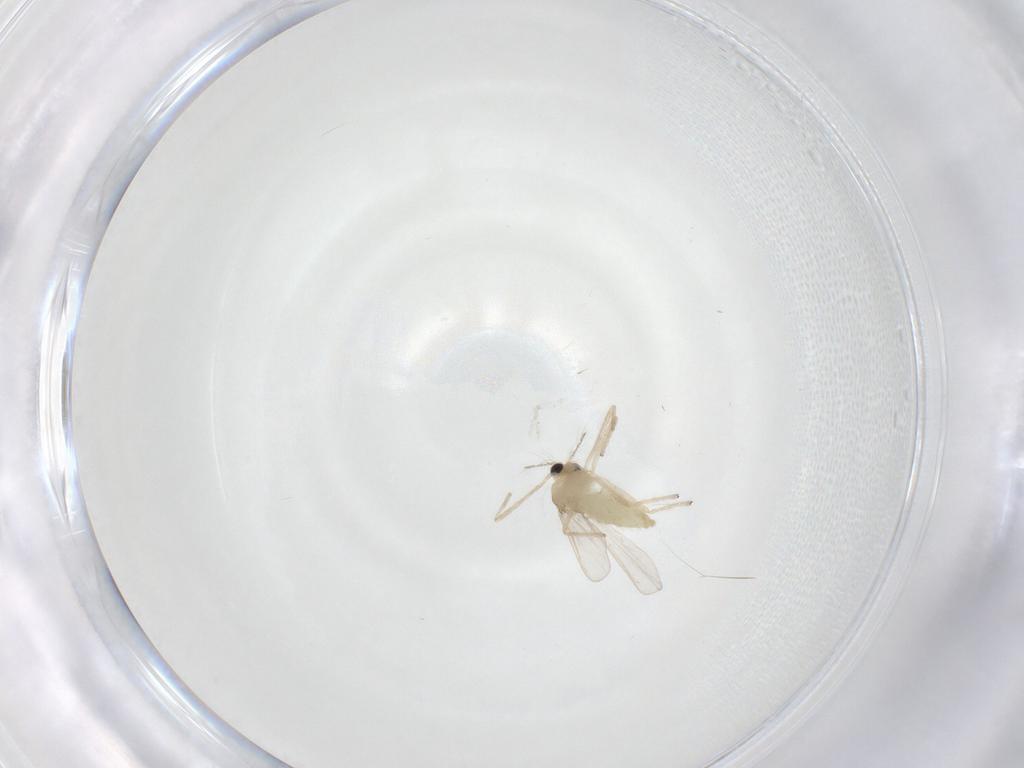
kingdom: Animalia
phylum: Arthropoda
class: Insecta
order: Diptera
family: Chironomidae
